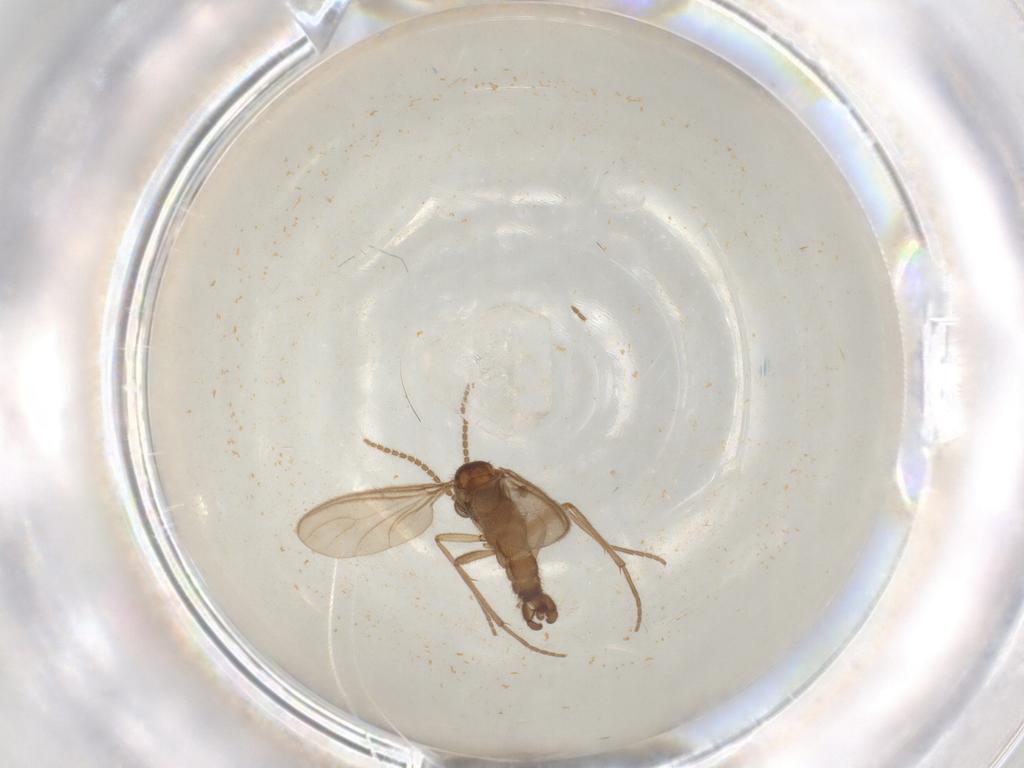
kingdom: Animalia
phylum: Arthropoda
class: Insecta
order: Diptera
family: Sciaridae
